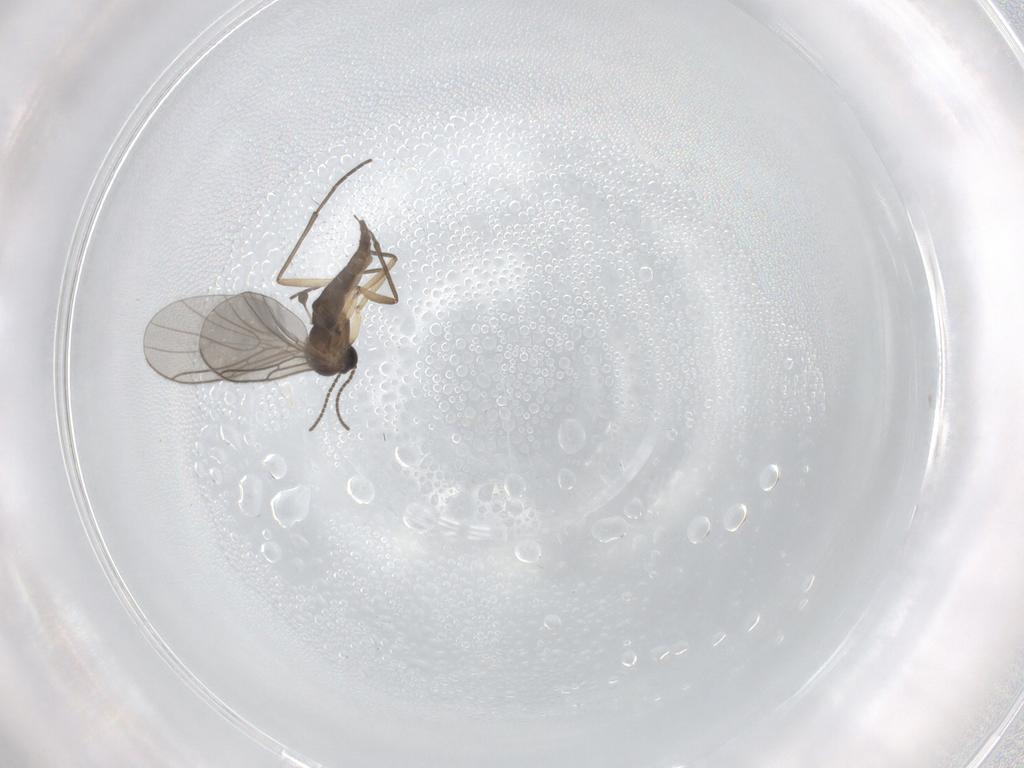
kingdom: Animalia
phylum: Arthropoda
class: Insecta
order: Diptera
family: Sciaridae
